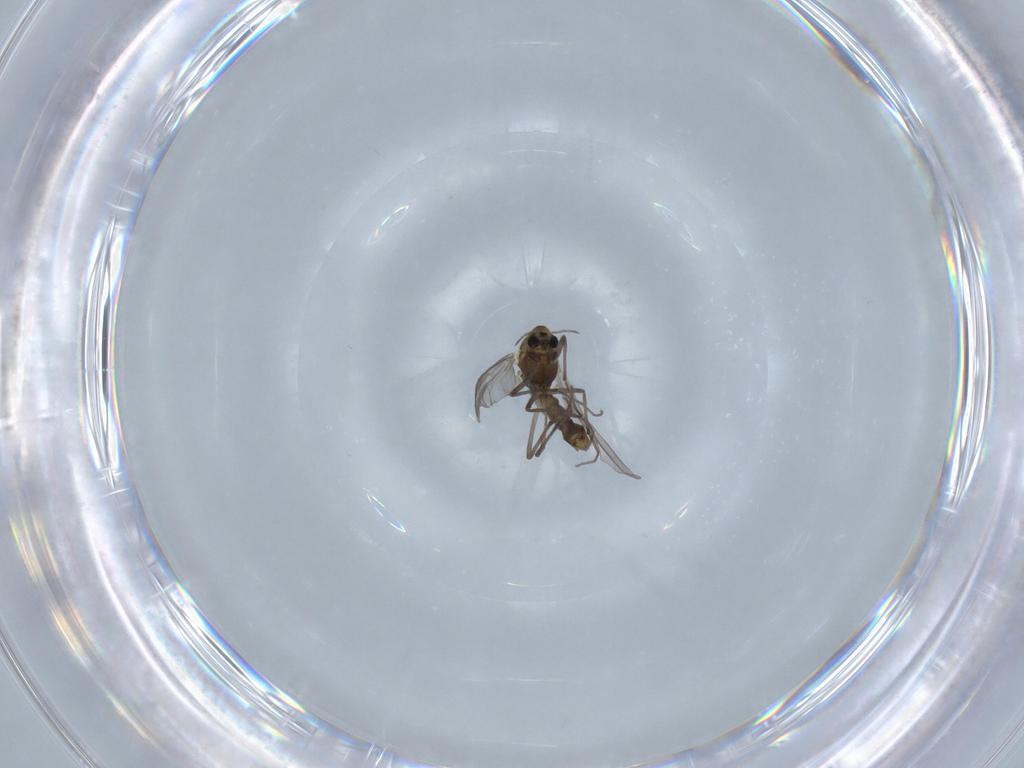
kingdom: Animalia
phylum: Arthropoda
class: Insecta
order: Diptera
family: Chironomidae
